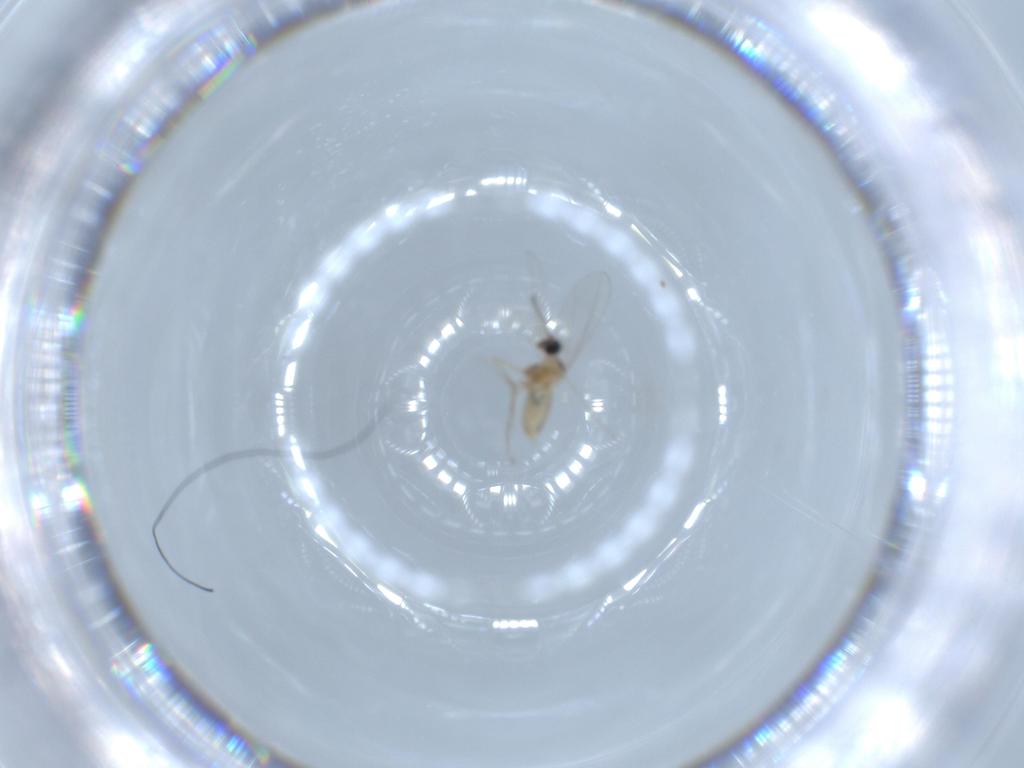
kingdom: Animalia
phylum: Arthropoda
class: Insecta
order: Diptera
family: Cecidomyiidae
